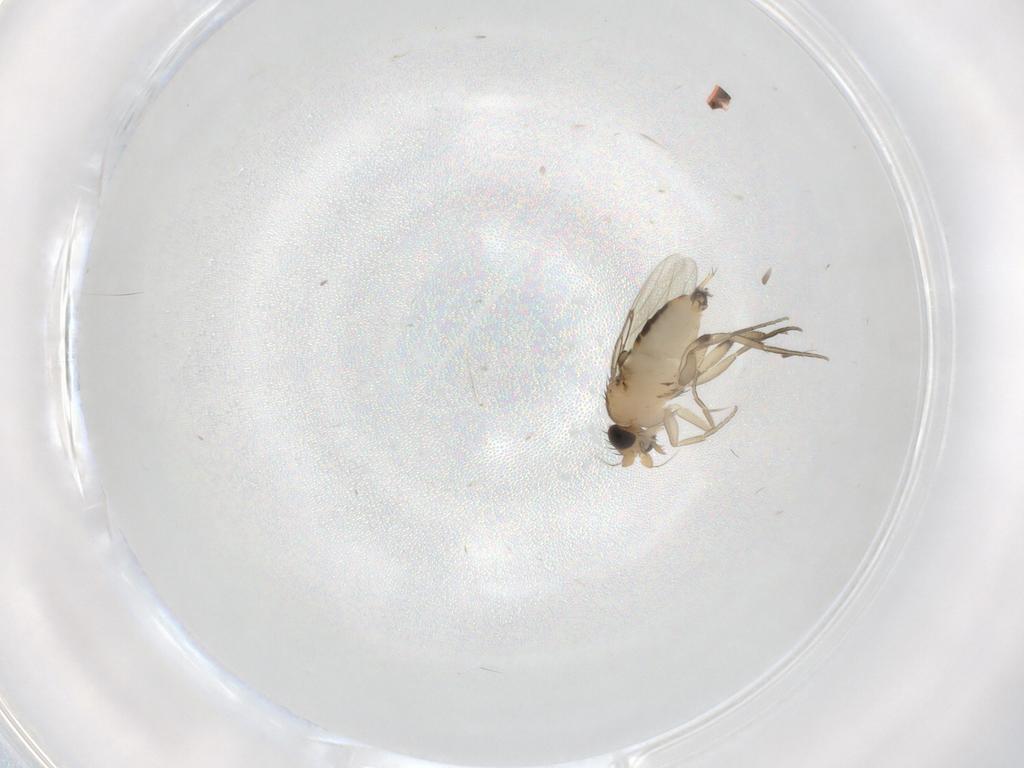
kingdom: Animalia
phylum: Arthropoda
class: Insecta
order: Diptera
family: Phoridae
